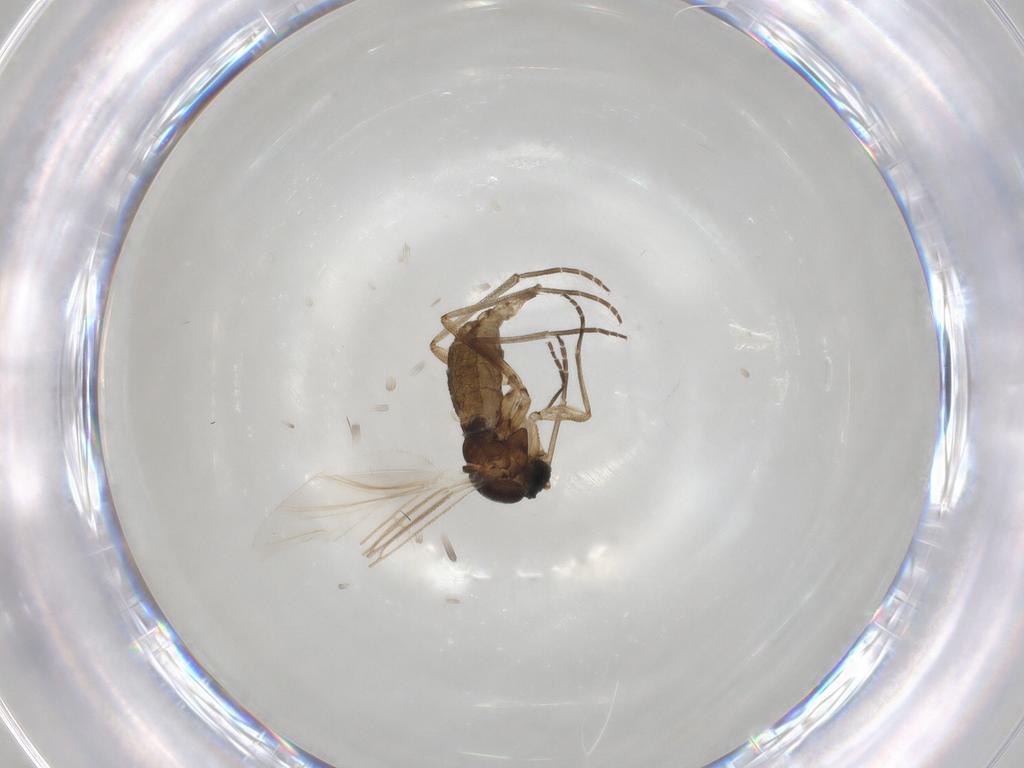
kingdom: Animalia
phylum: Arthropoda
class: Insecta
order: Diptera
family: Empididae
